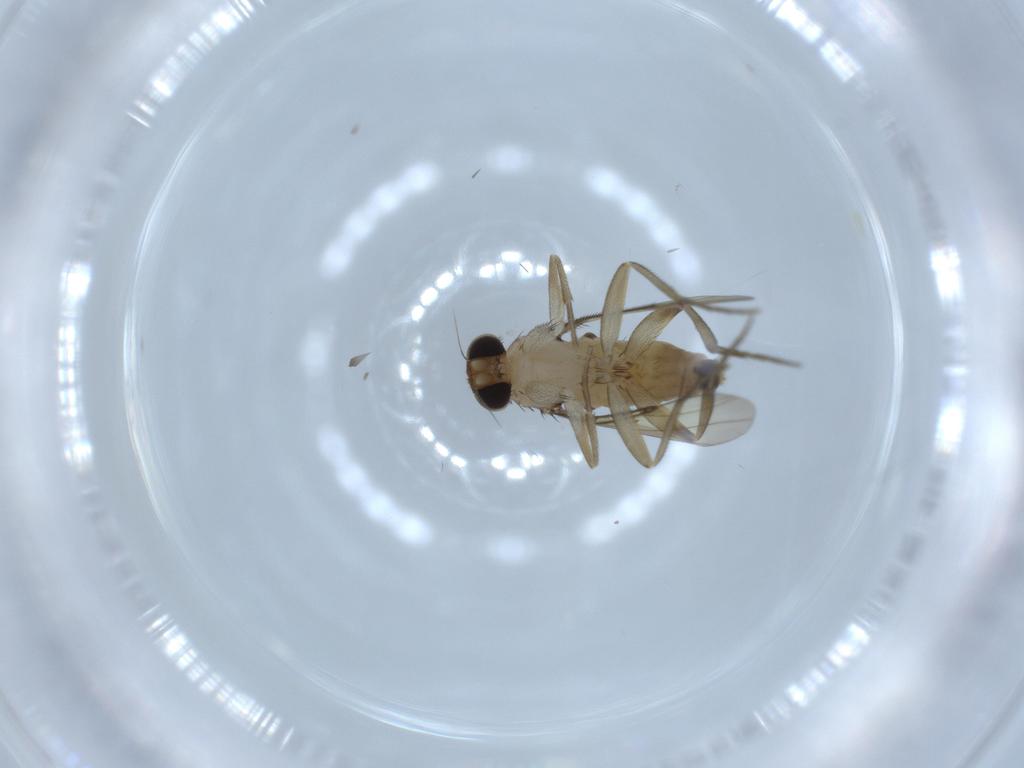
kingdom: Animalia
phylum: Arthropoda
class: Insecta
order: Diptera
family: Phoridae
